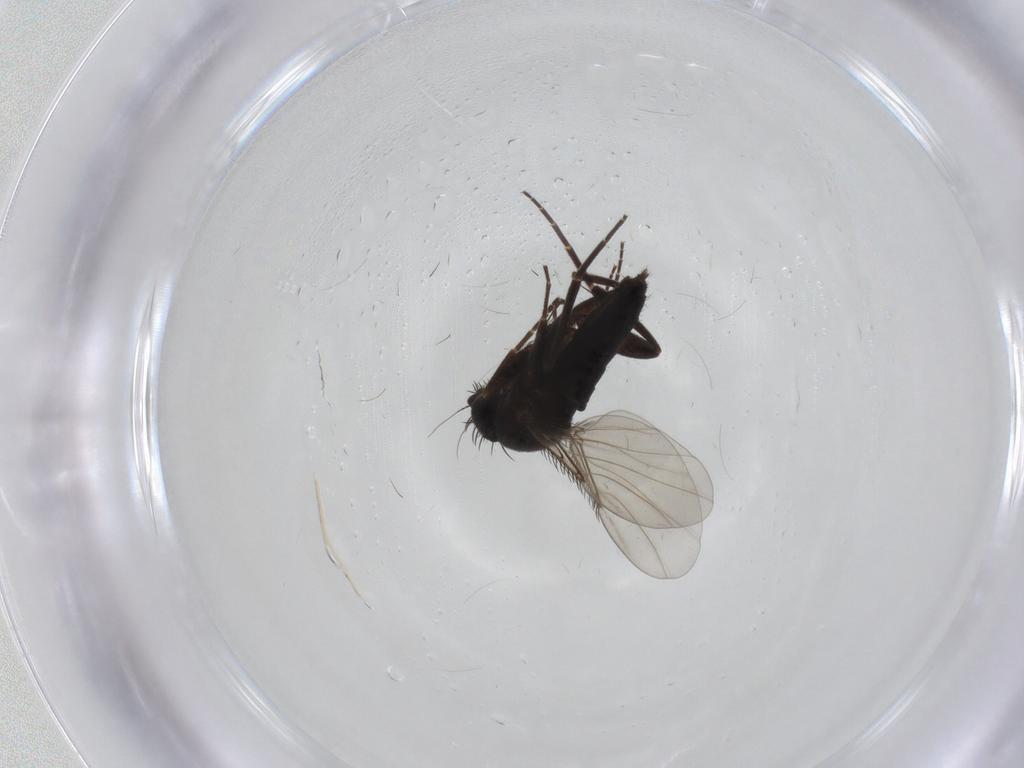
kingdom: Animalia
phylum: Arthropoda
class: Insecta
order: Diptera
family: Phoridae
